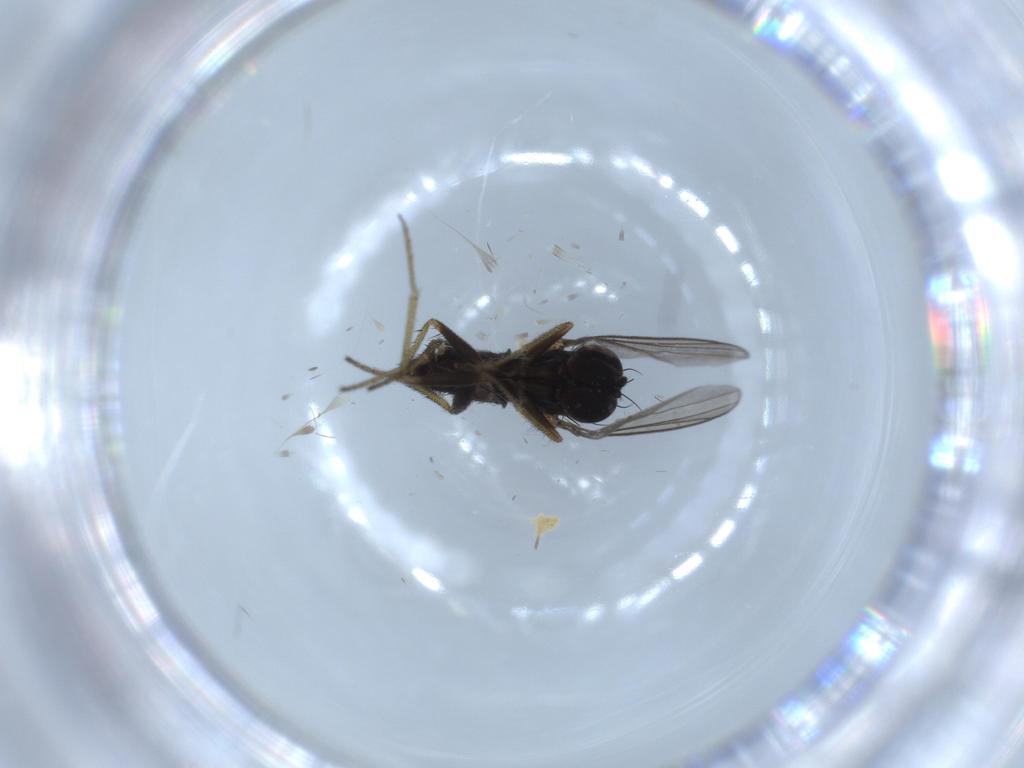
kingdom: Animalia
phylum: Arthropoda
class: Insecta
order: Diptera
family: Dolichopodidae
